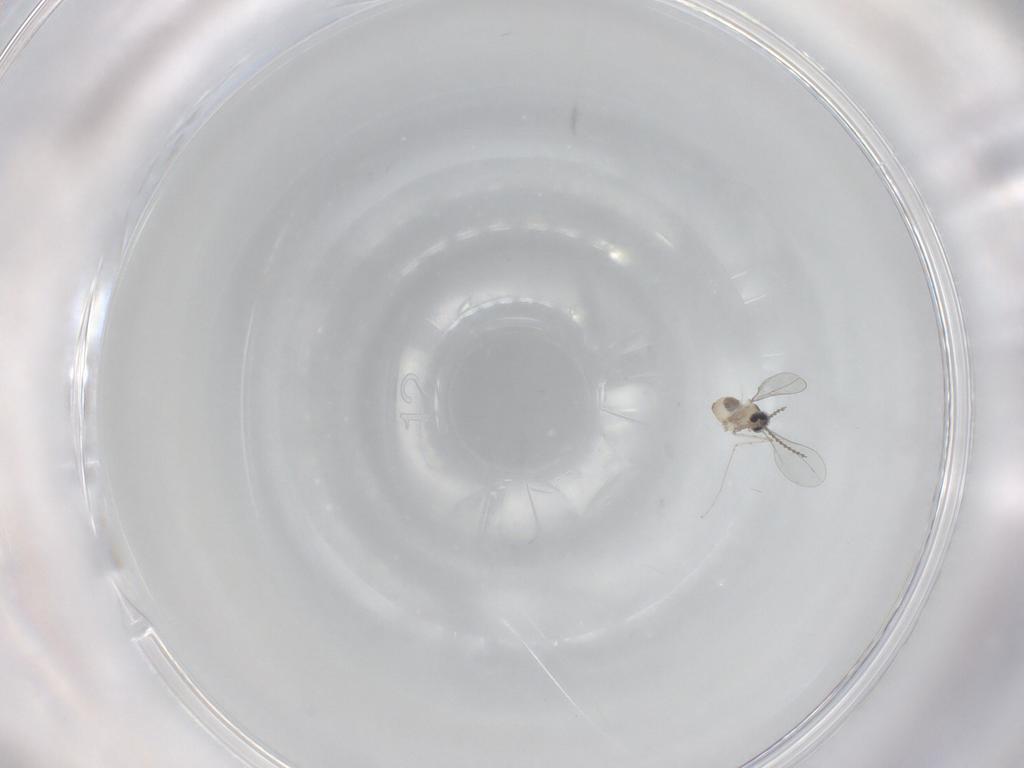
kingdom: Animalia
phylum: Arthropoda
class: Insecta
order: Diptera
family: Cecidomyiidae
